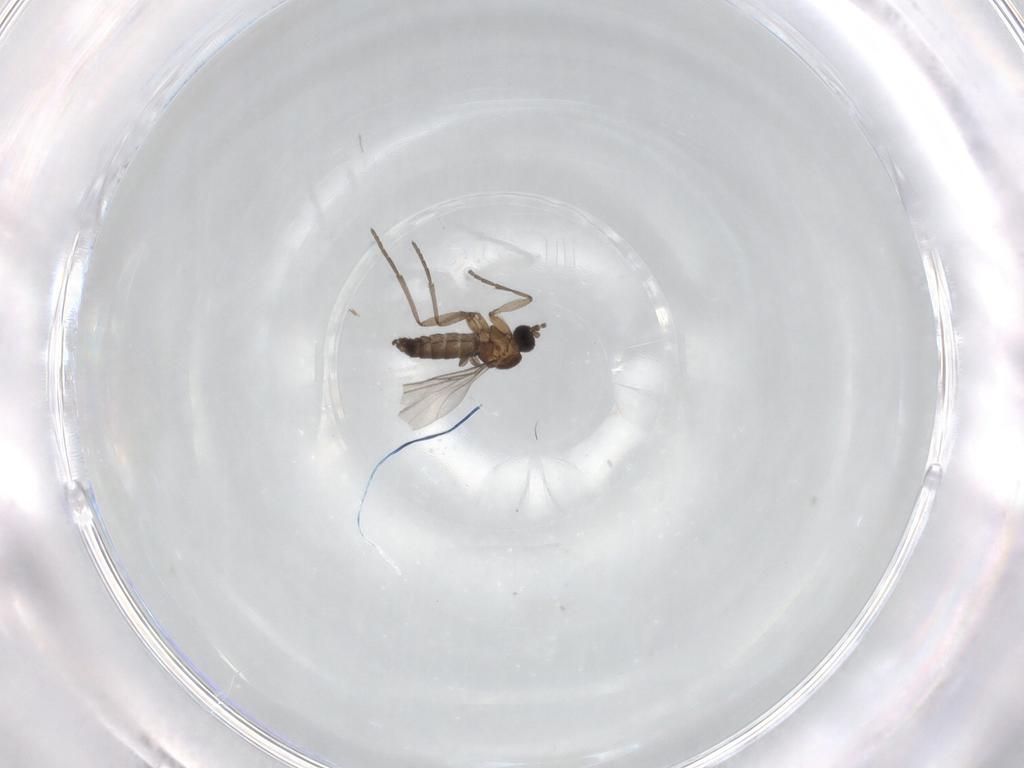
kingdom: Animalia
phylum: Arthropoda
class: Insecta
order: Diptera
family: Sciaridae
